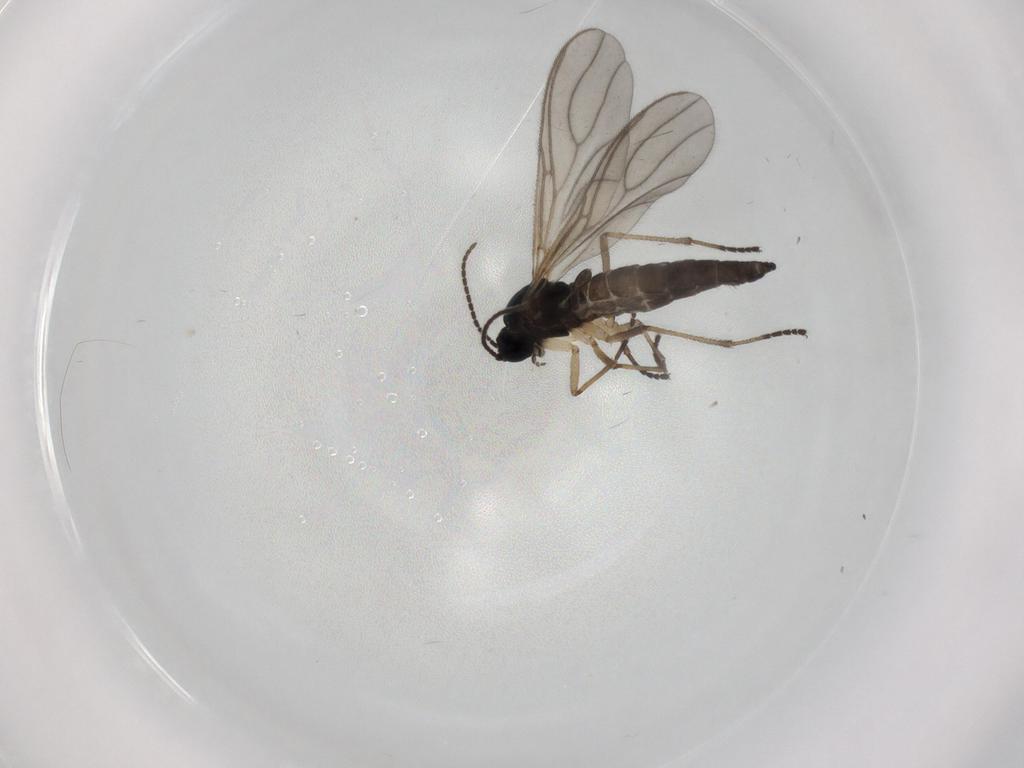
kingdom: Animalia
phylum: Arthropoda
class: Insecta
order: Diptera
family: Sciaridae
